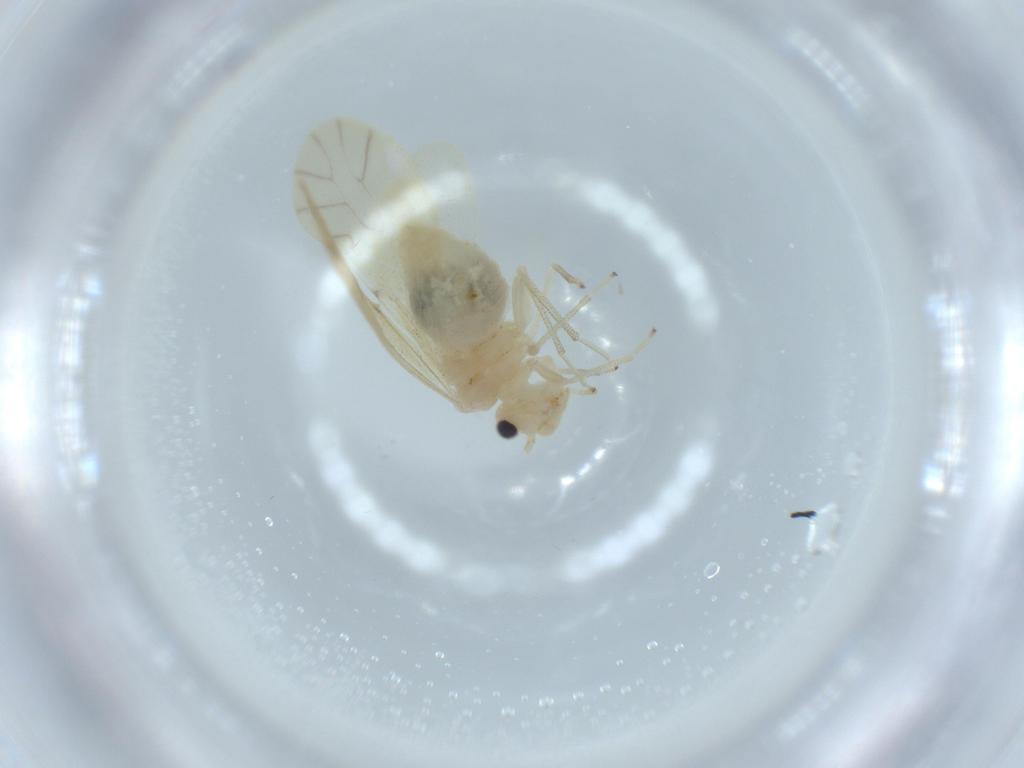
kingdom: Animalia
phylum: Arthropoda
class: Insecta
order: Psocodea
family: Caeciliusidae
